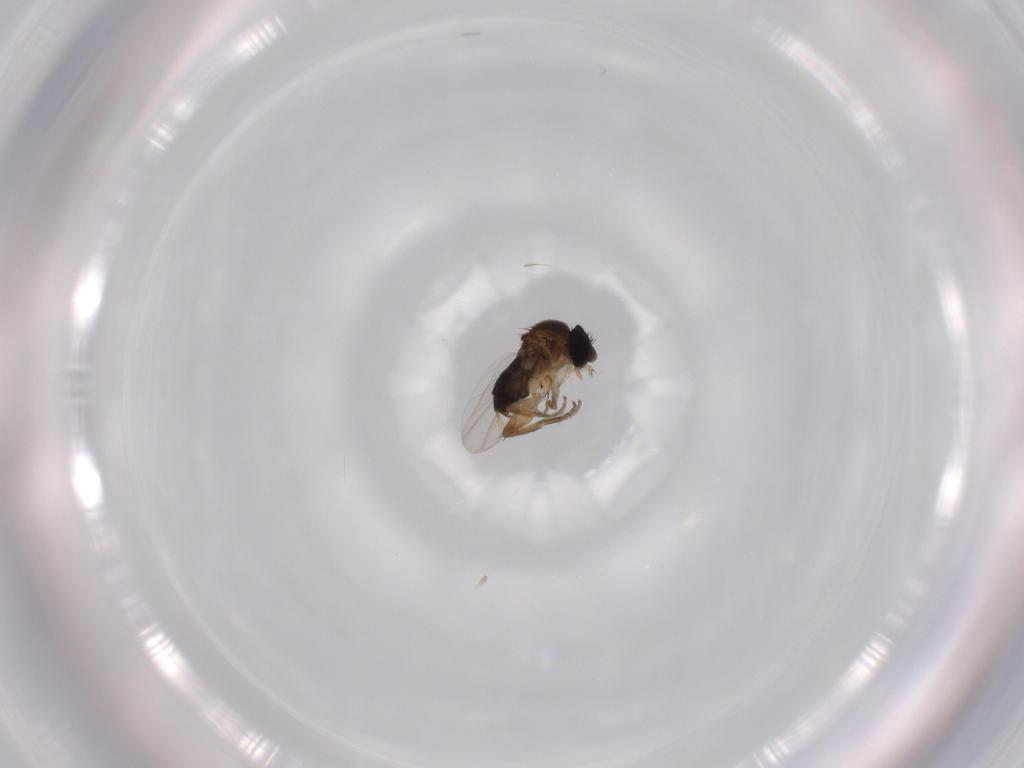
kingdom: Animalia
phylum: Arthropoda
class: Insecta
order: Diptera
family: Phoridae
